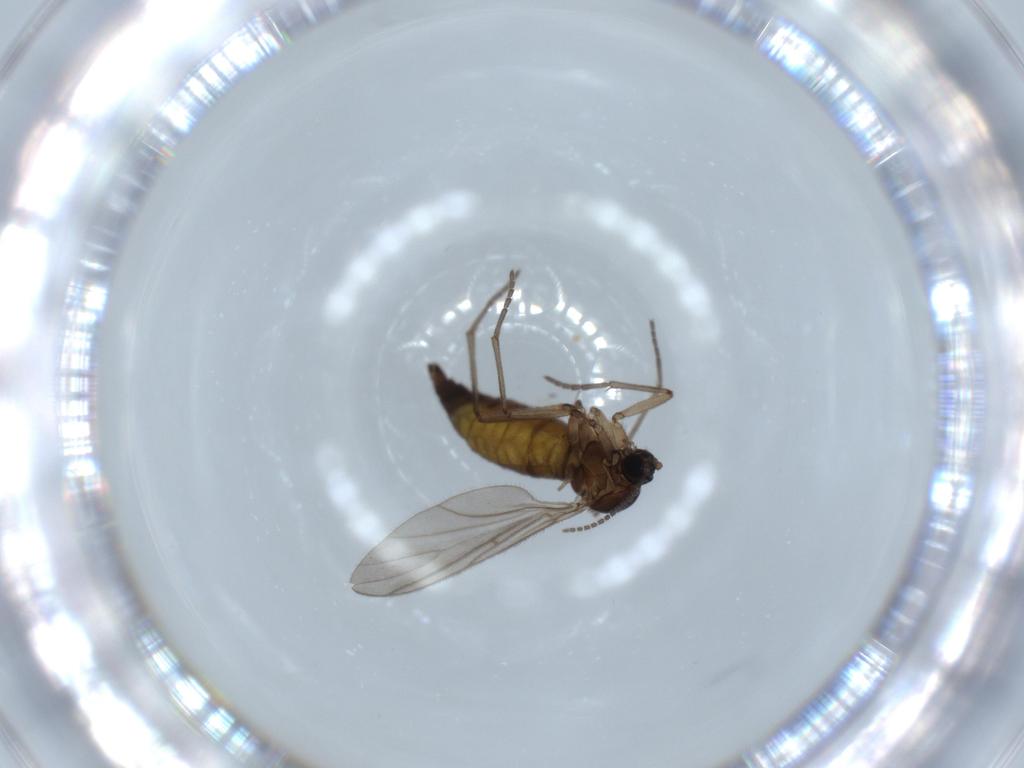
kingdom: Animalia
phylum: Arthropoda
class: Insecta
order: Diptera
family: Sciaridae
